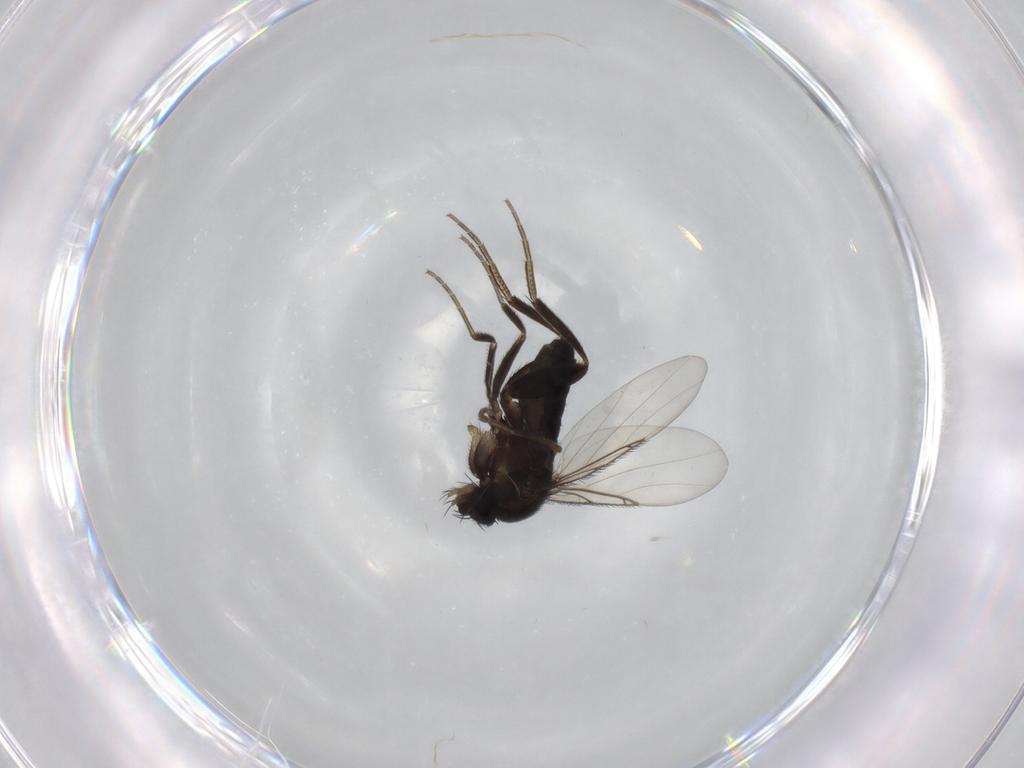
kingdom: Animalia
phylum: Arthropoda
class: Insecta
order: Diptera
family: Phoridae
